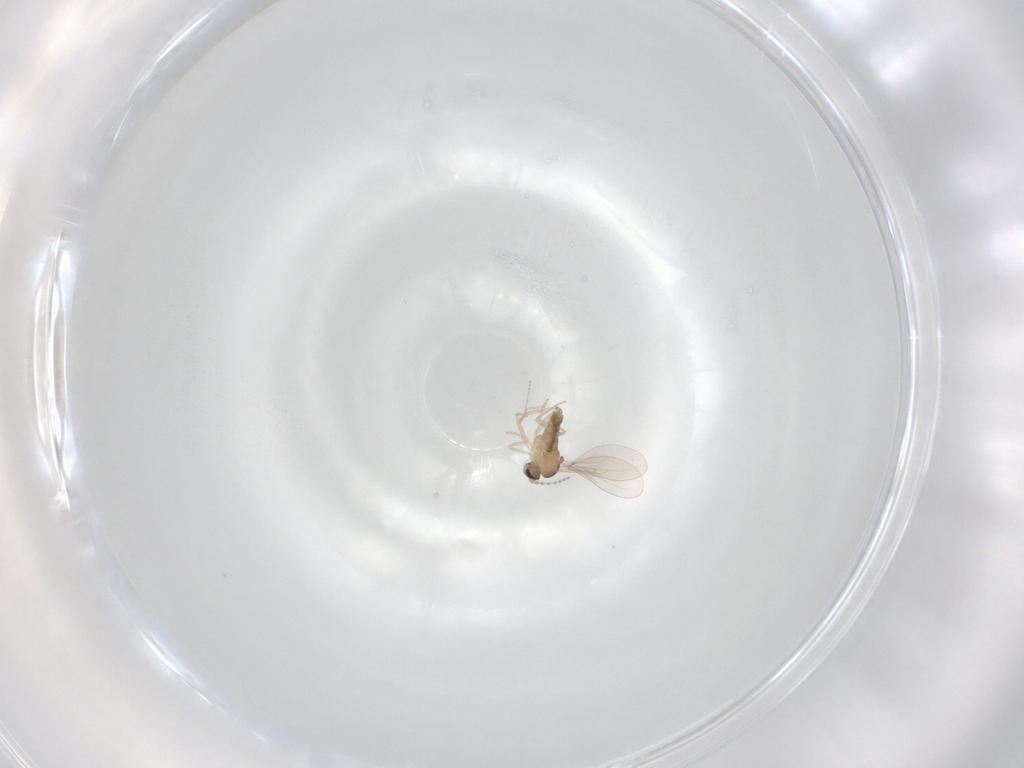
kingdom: Animalia
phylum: Arthropoda
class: Insecta
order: Diptera
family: Cecidomyiidae
